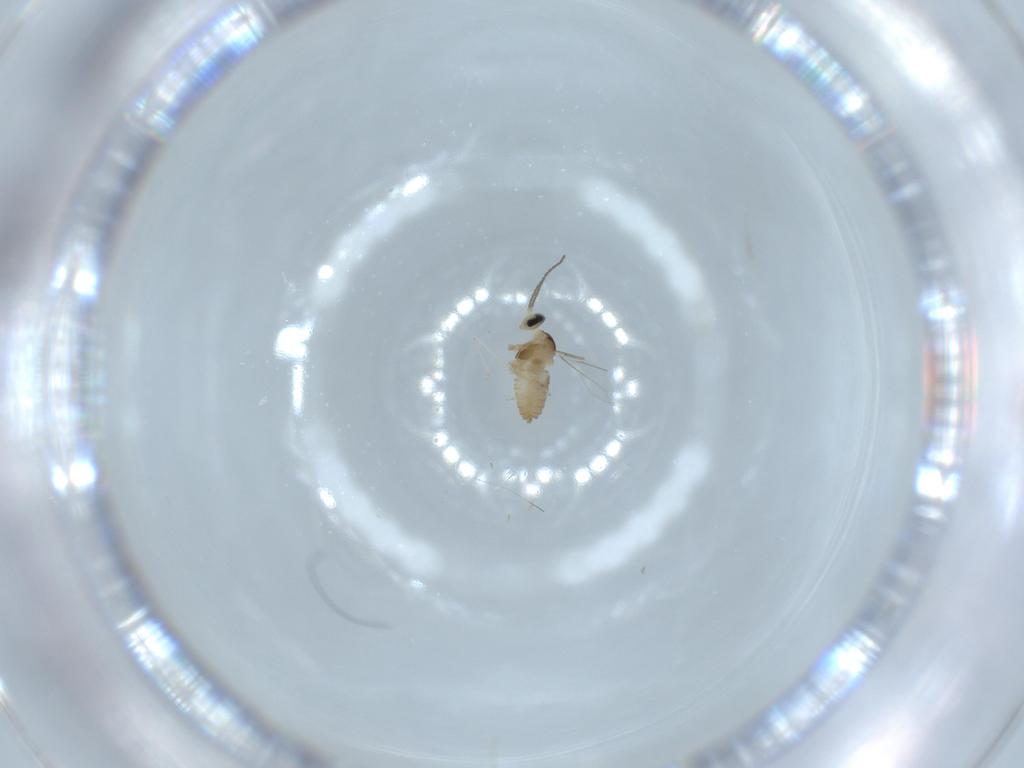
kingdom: Animalia
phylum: Arthropoda
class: Insecta
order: Diptera
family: Cecidomyiidae
